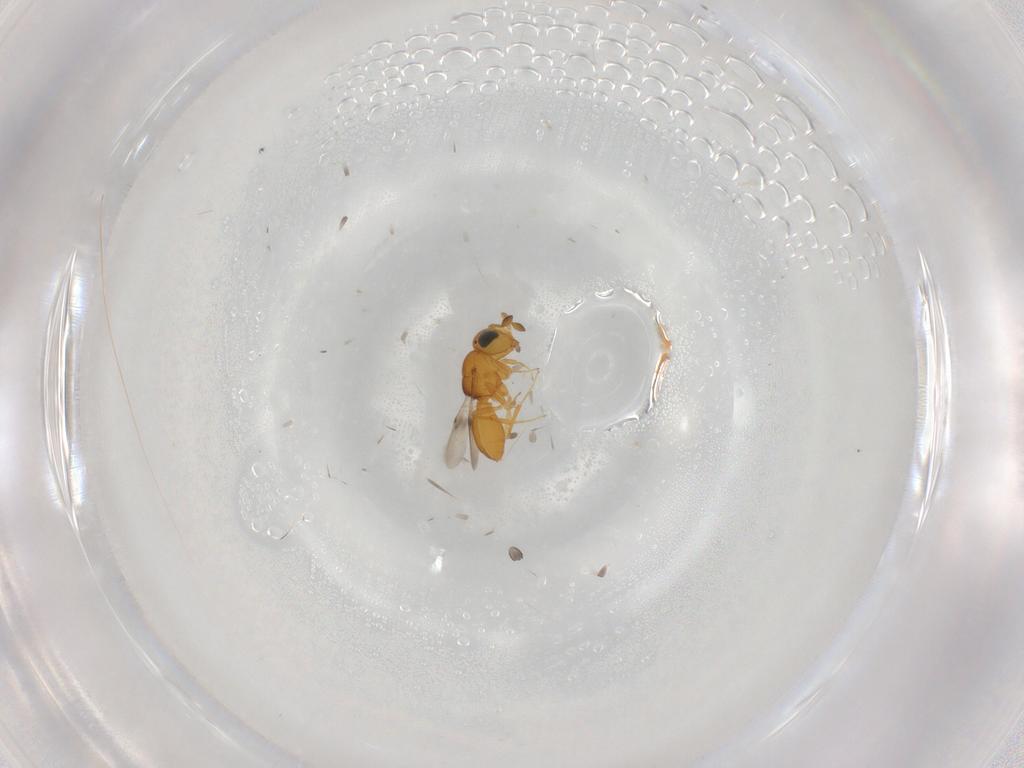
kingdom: Animalia
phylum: Arthropoda
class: Insecta
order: Hymenoptera
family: Scelionidae
